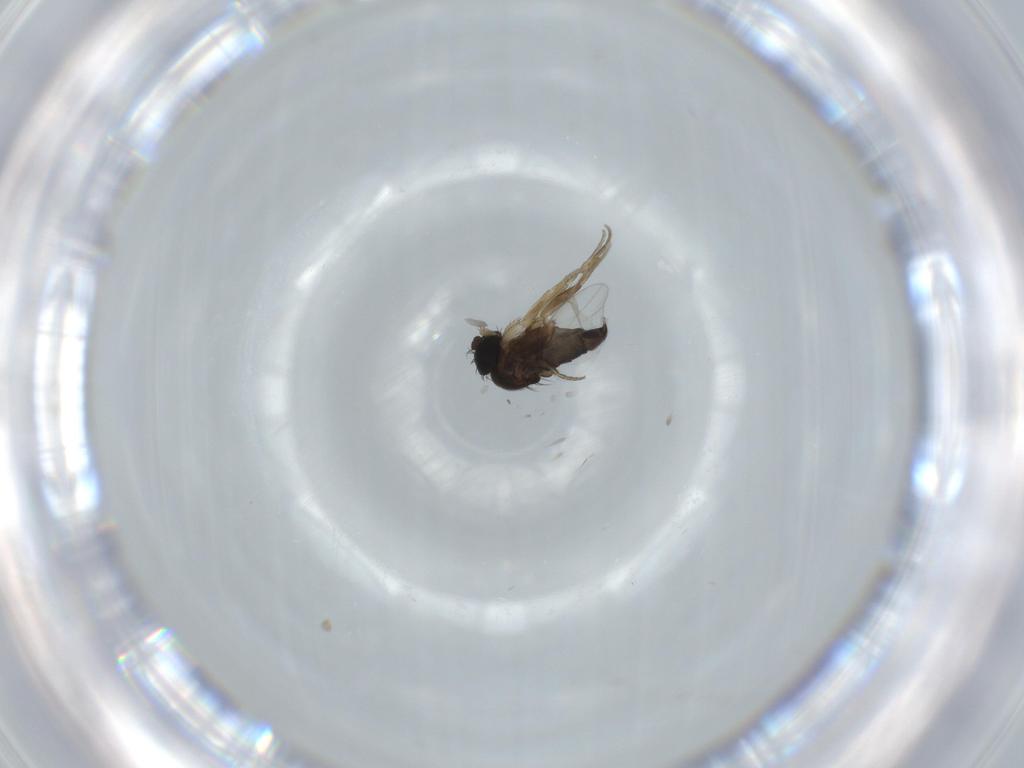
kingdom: Animalia
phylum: Arthropoda
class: Insecta
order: Diptera
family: Phoridae
